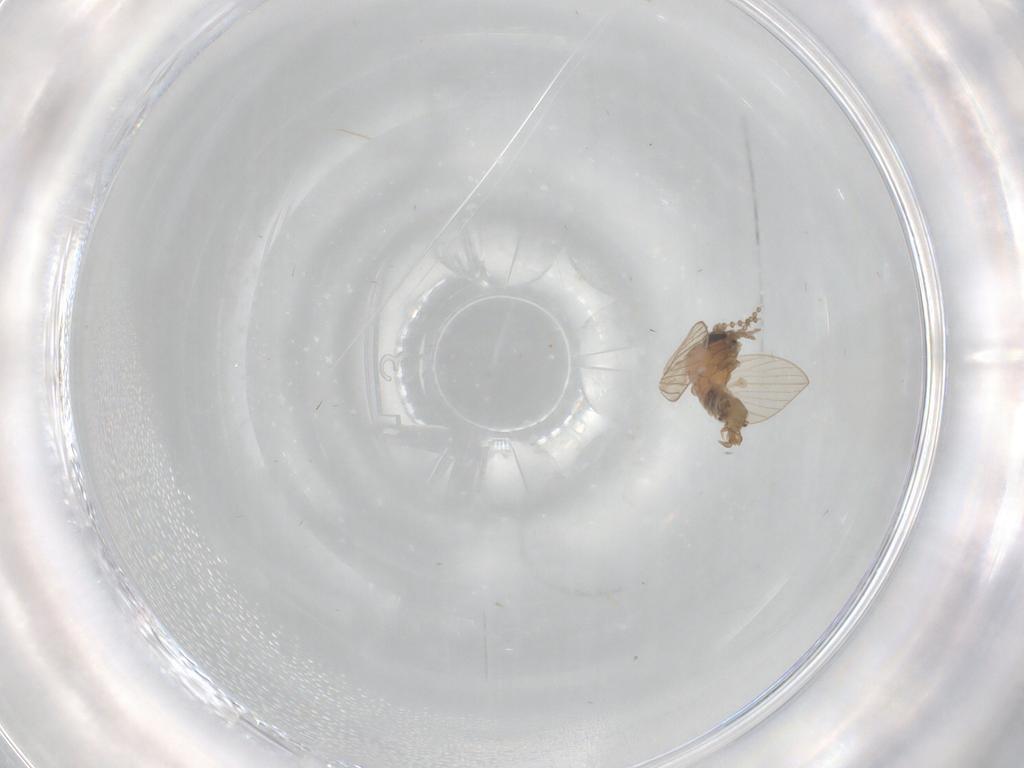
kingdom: Animalia
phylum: Arthropoda
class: Insecta
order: Diptera
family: Psychodidae
